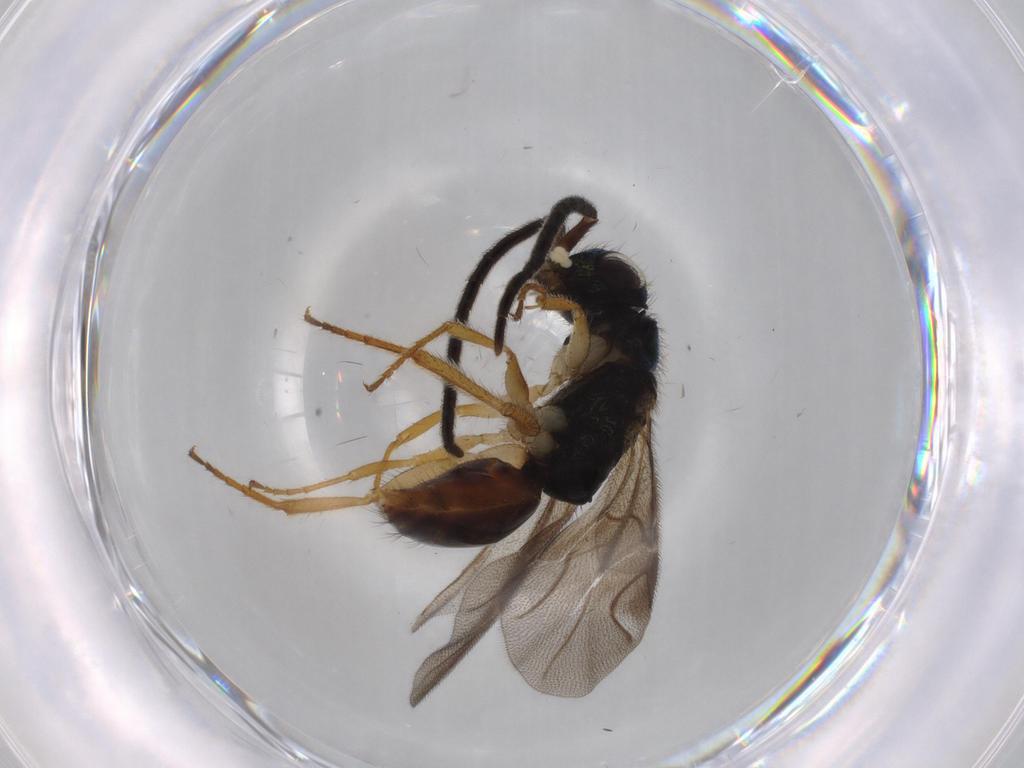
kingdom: Animalia
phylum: Arthropoda
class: Insecta
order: Hymenoptera
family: Chrysididae
